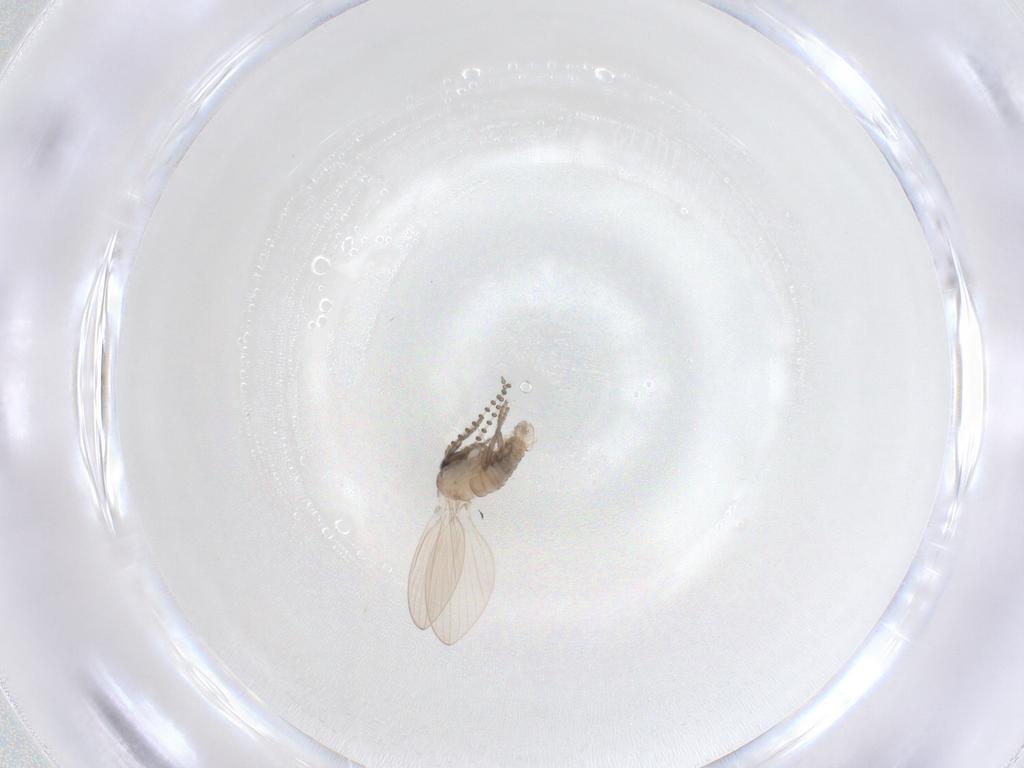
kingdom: Animalia
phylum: Arthropoda
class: Insecta
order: Diptera
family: Psychodidae
